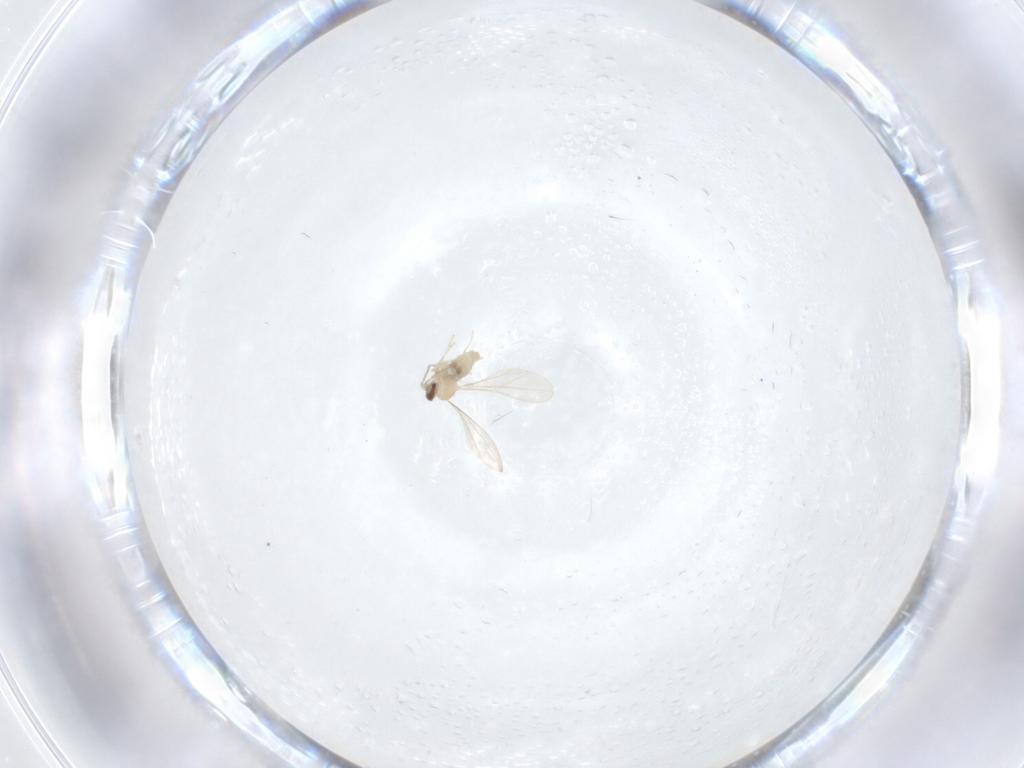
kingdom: Animalia
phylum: Arthropoda
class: Insecta
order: Diptera
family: Cecidomyiidae
